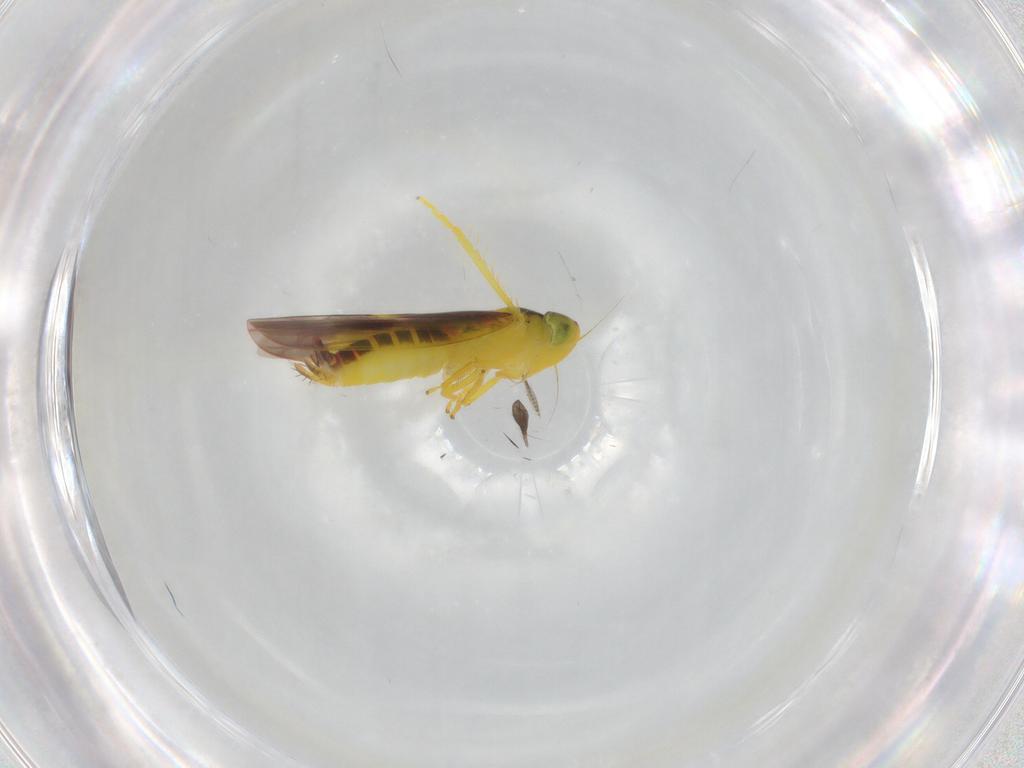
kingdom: Animalia
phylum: Arthropoda
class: Insecta
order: Hemiptera
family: Cicadellidae
